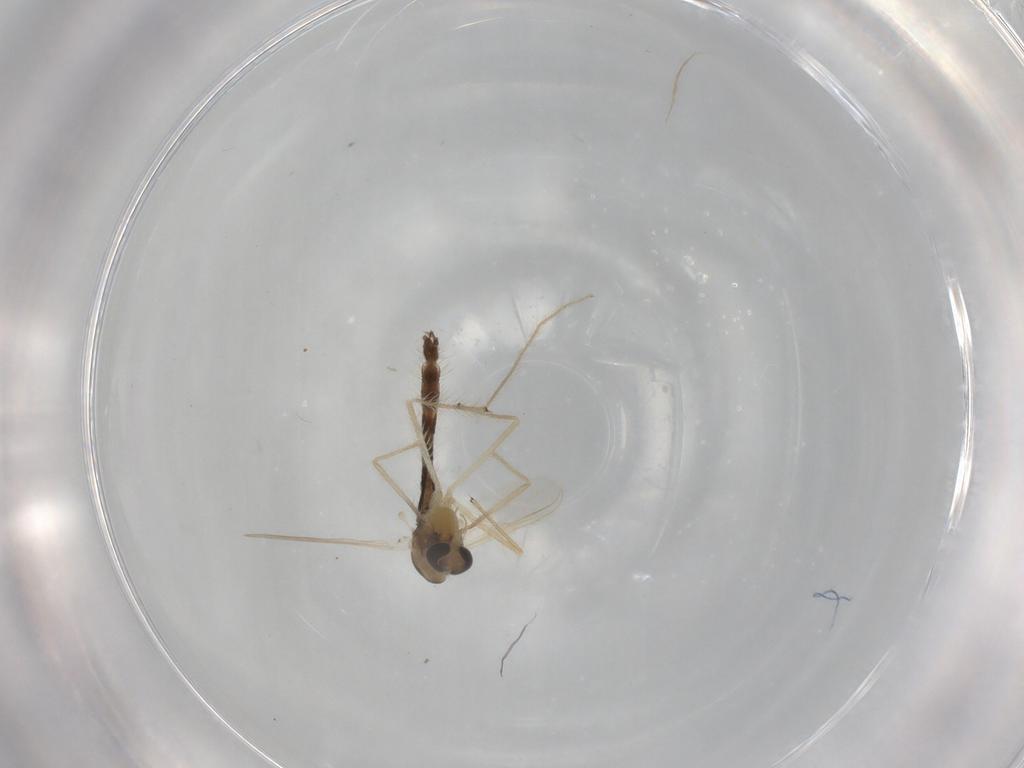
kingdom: Animalia
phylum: Arthropoda
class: Insecta
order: Diptera
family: Chironomidae
